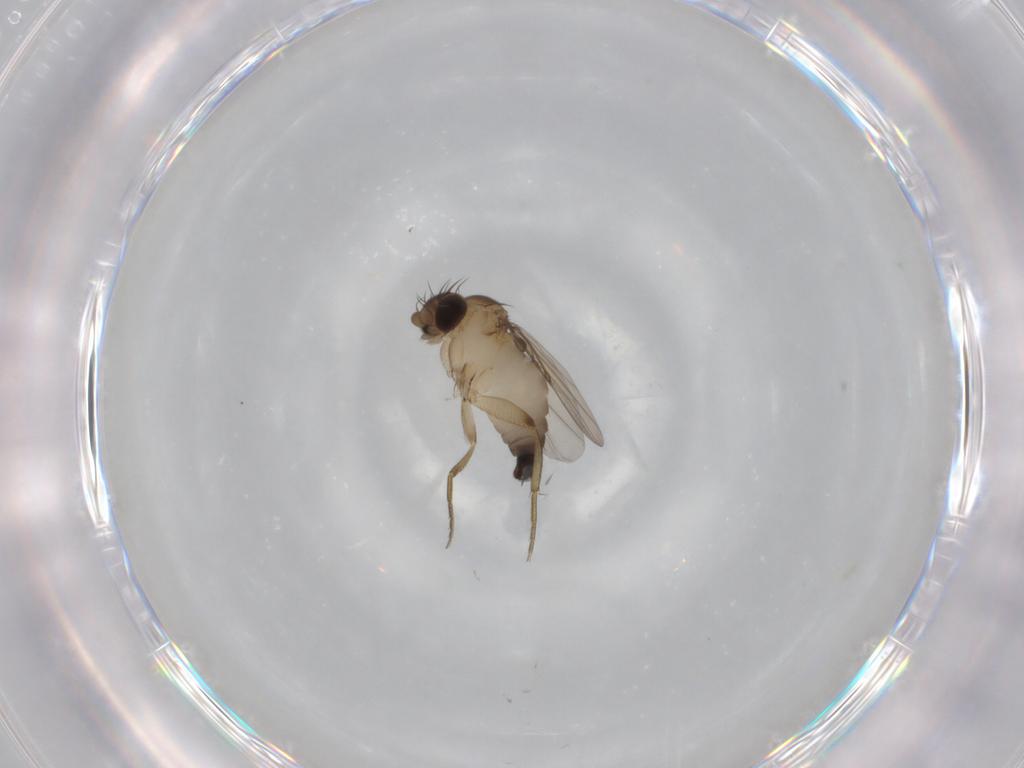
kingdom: Animalia
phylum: Arthropoda
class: Insecta
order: Diptera
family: Phoridae
